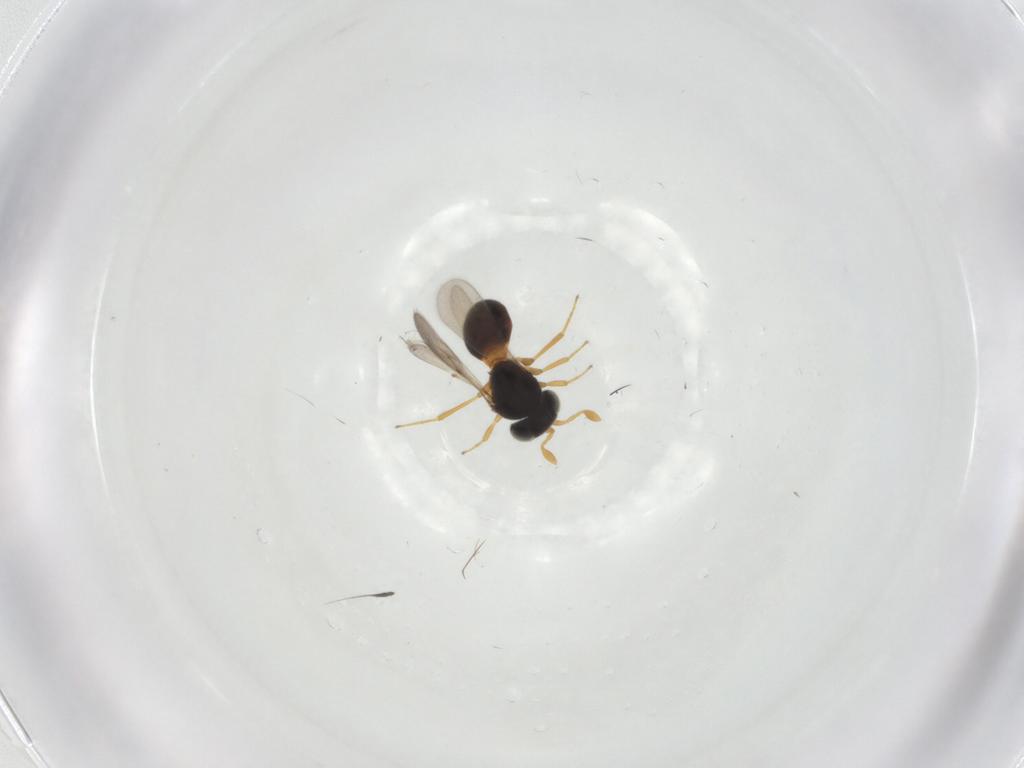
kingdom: Animalia
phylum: Arthropoda
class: Insecta
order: Hymenoptera
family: Scelionidae
